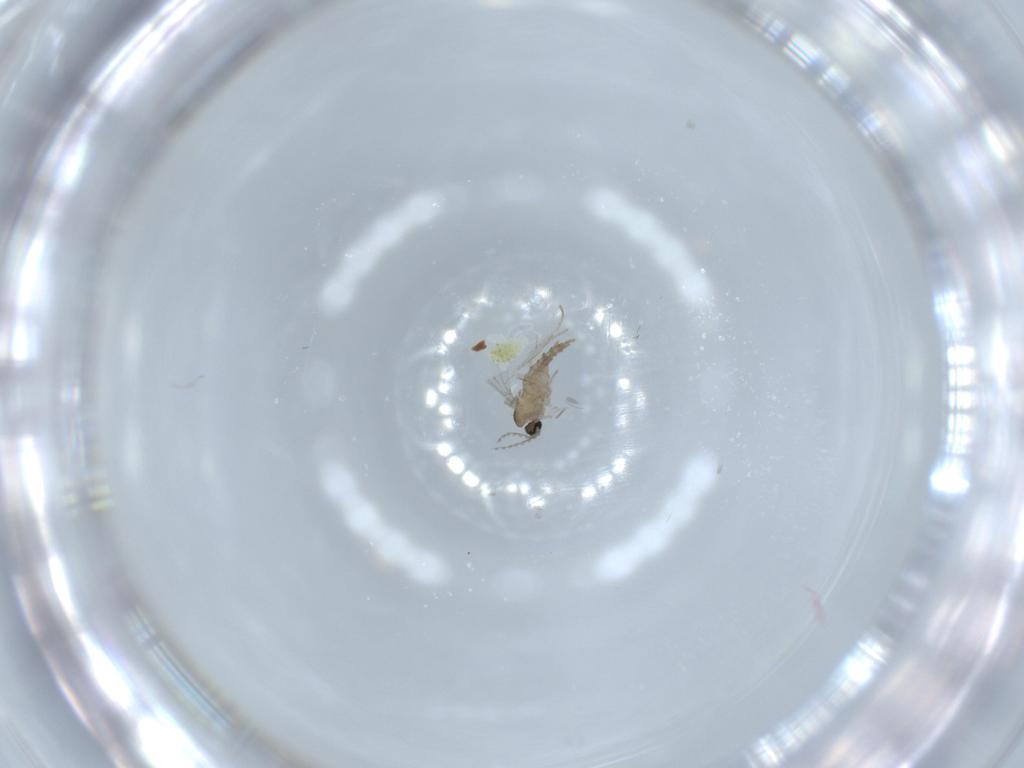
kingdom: Animalia
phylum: Arthropoda
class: Insecta
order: Diptera
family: Cecidomyiidae
